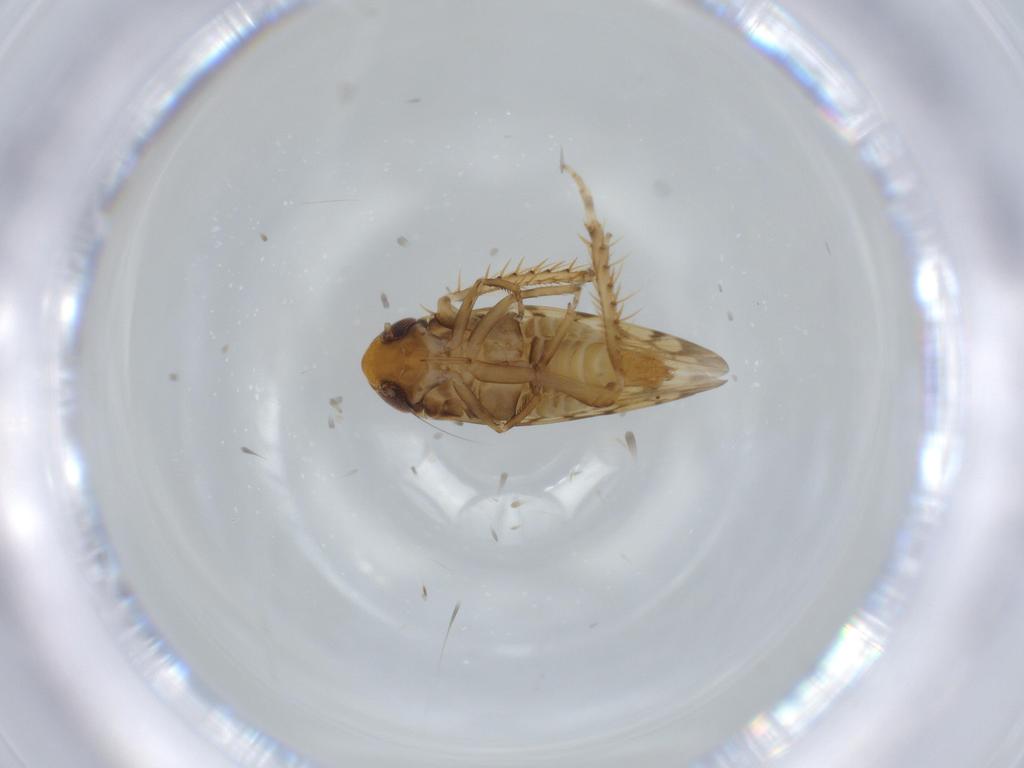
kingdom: Animalia
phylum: Arthropoda
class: Insecta
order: Hemiptera
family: Cicadellidae
